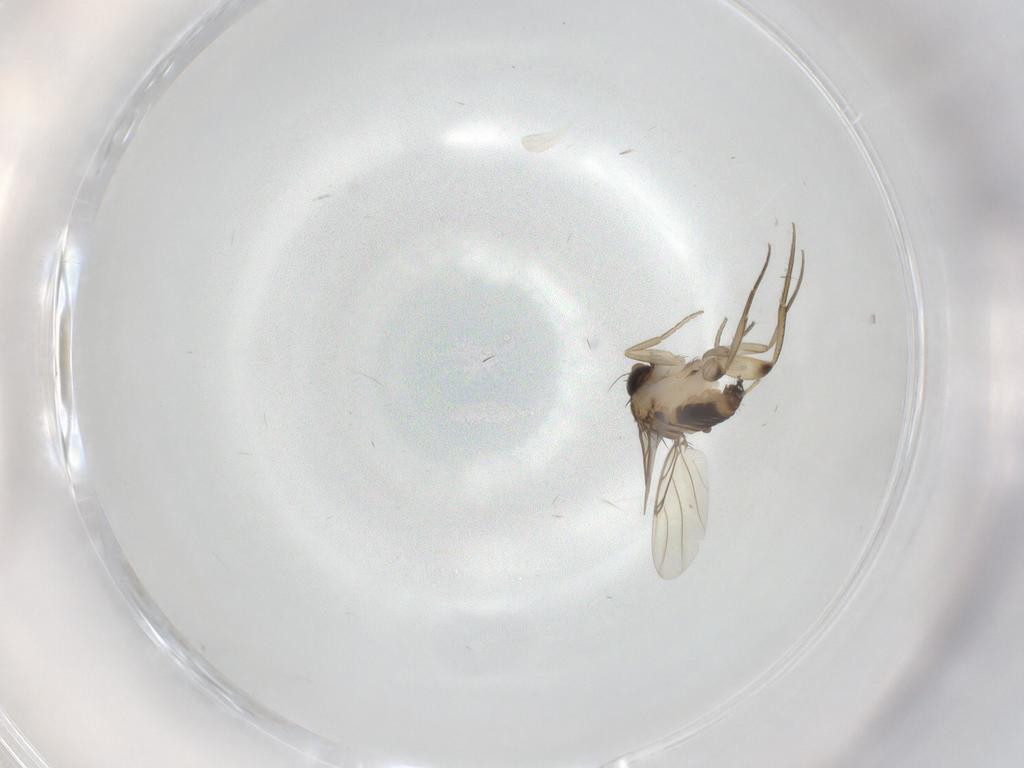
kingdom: Animalia
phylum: Arthropoda
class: Insecta
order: Diptera
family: Phoridae
